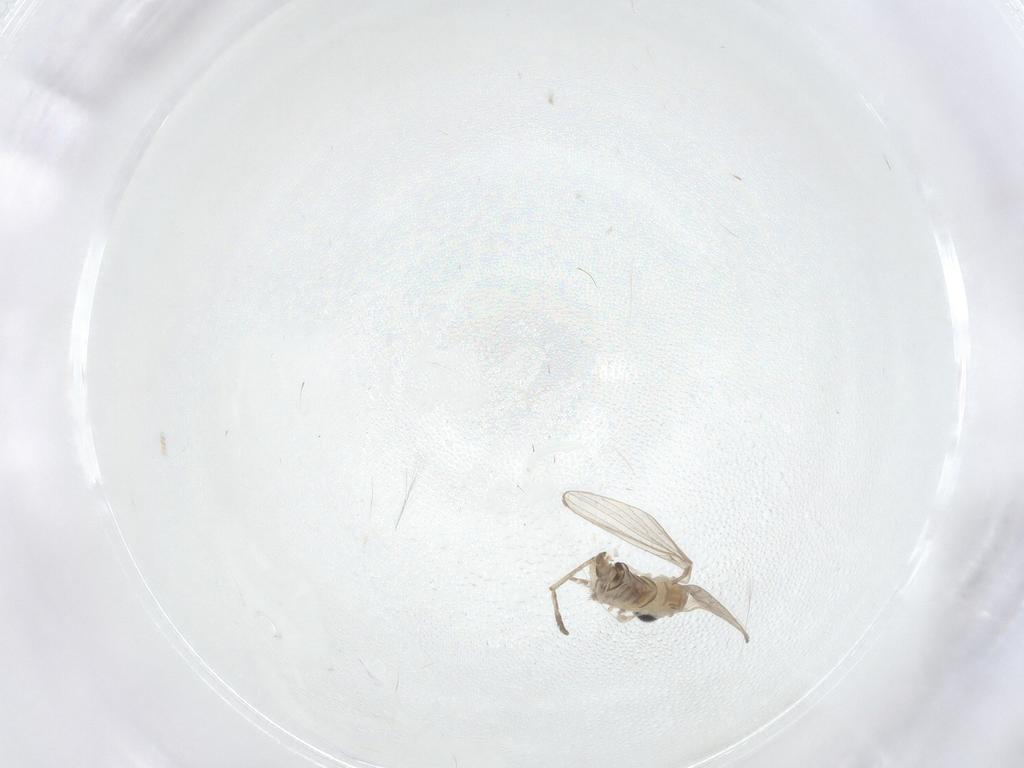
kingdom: Animalia
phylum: Arthropoda
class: Insecta
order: Diptera
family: Psychodidae
